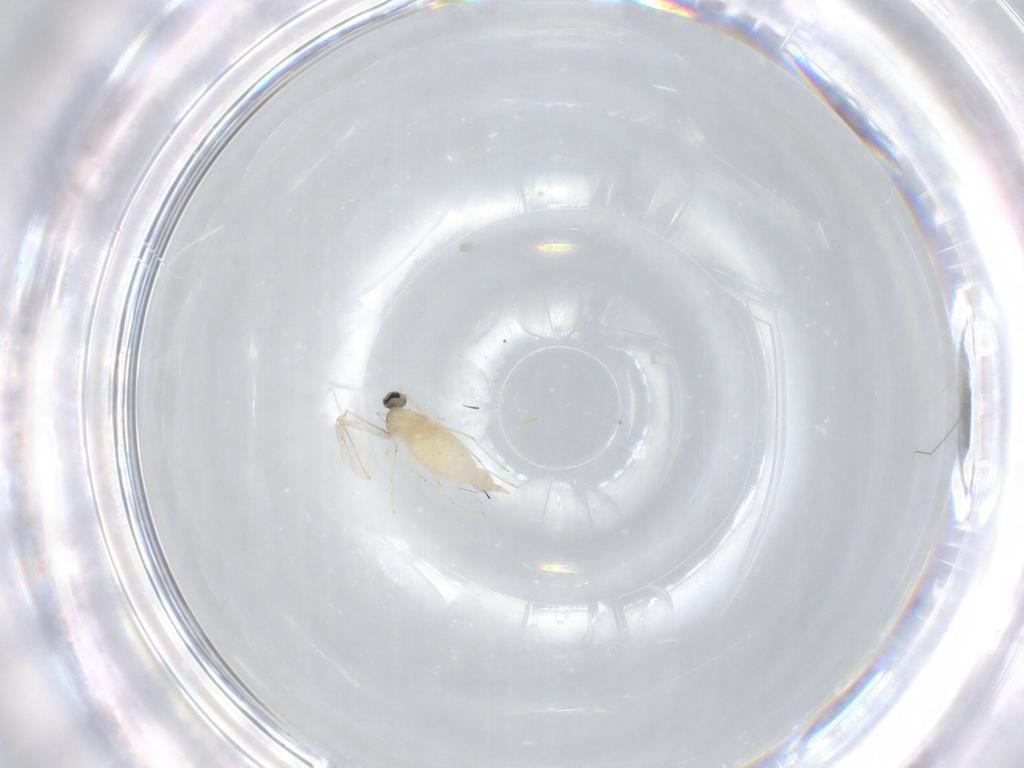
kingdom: Animalia
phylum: Arthropoda
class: Insecta
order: Diptera
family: Cecidomyiidae
